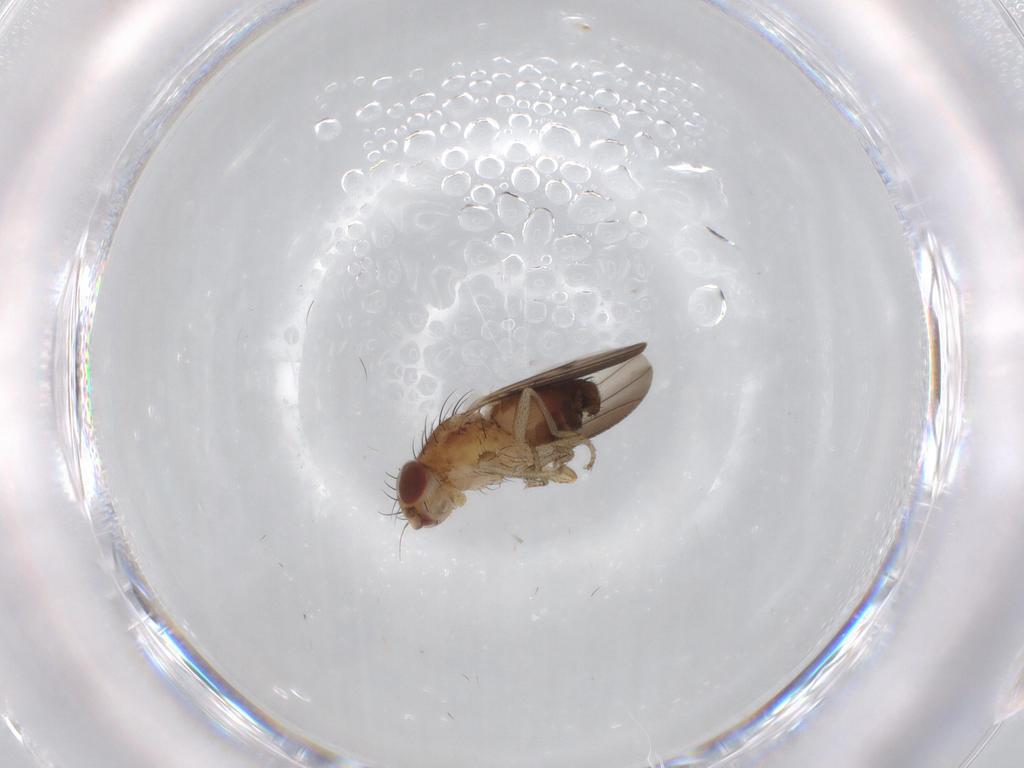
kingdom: Animalia
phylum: Arthropoda
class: Insecta
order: Diptera
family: Heleomyzidae
